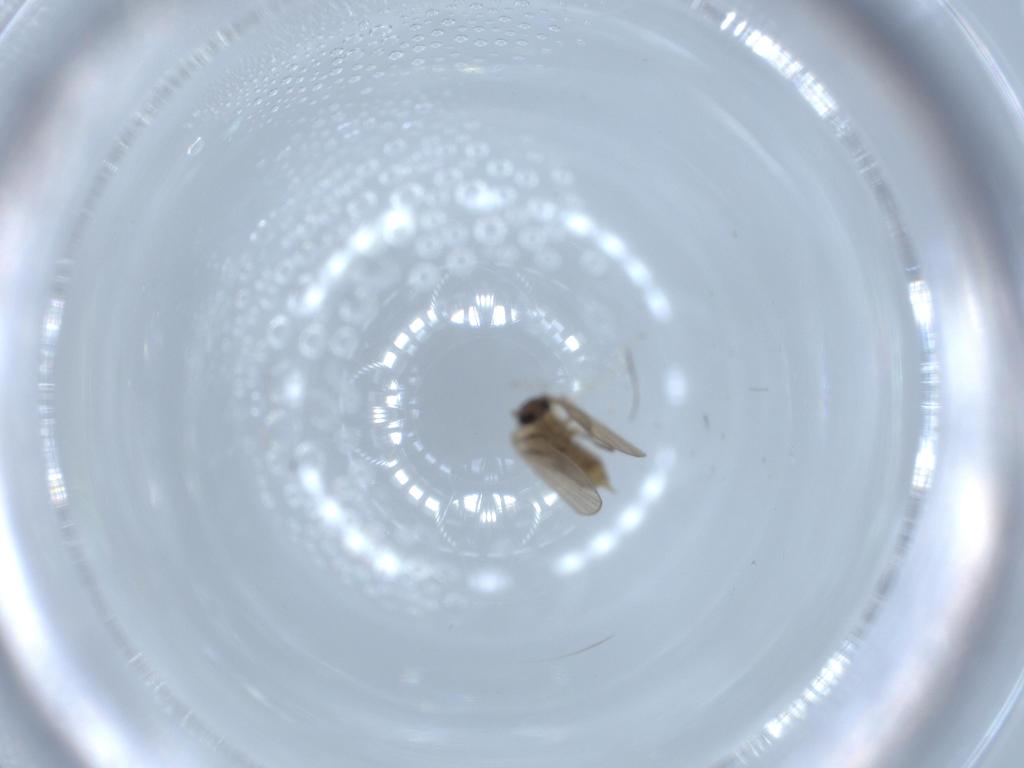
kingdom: Animalia
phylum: Arthropoda
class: Insecta
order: Diptera
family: Psychodidae
